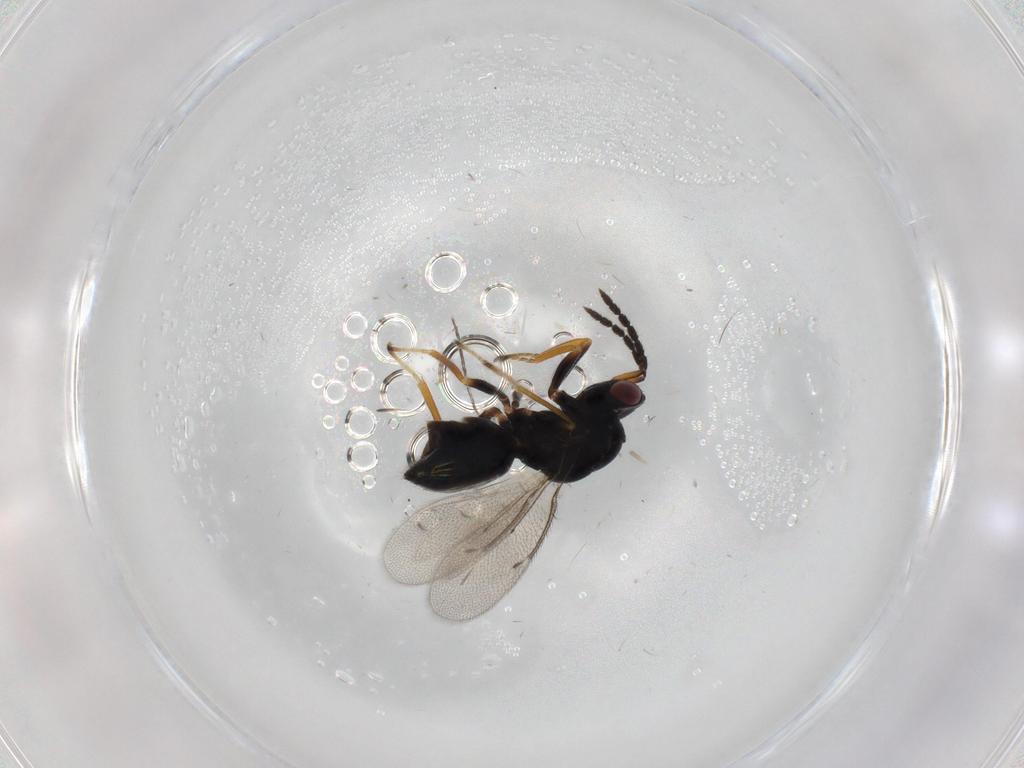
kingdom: Animalia
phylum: Arthropoda
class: Insecta
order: Hymenoptera
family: Eulophidae
